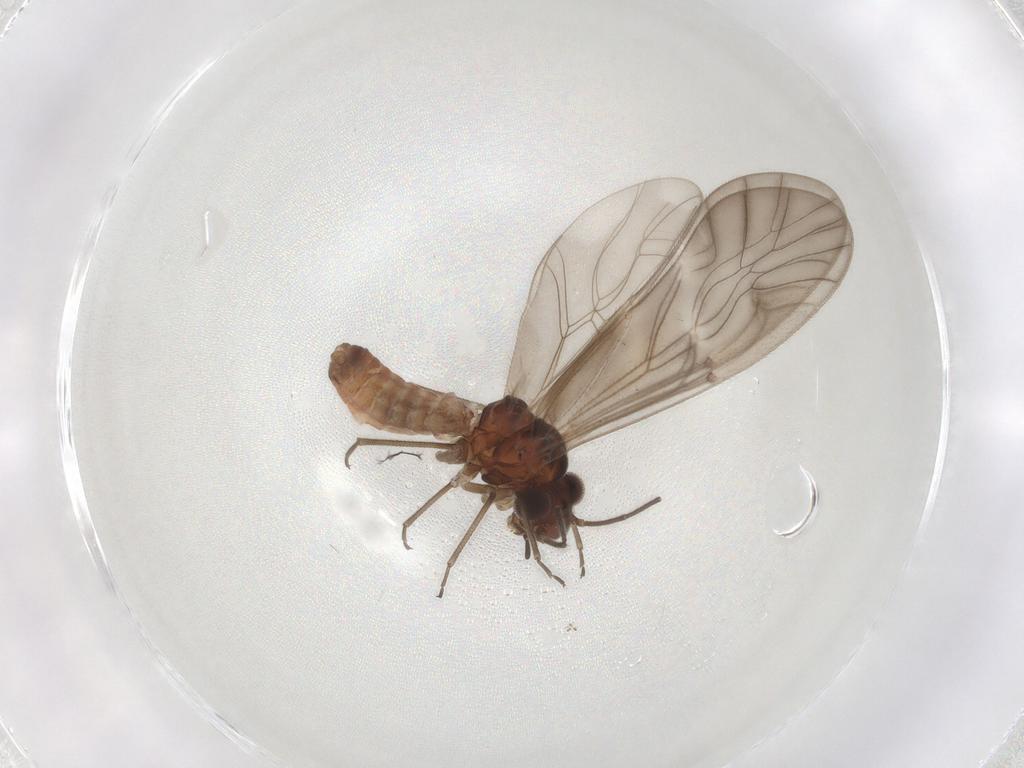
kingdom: Animalia
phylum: Arthropoda
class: Insecta
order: Psocodea
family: Caeciliusidae
